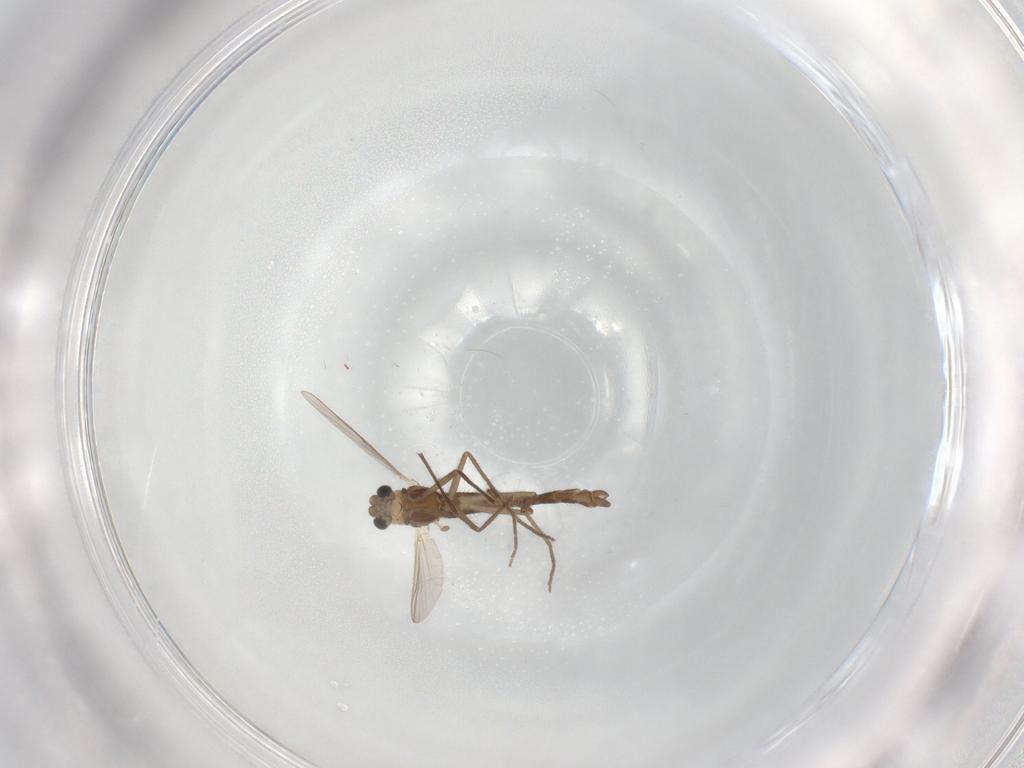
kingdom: Animalia
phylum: Arthropoda
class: Insecta
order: Diptera
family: Chironomidae
